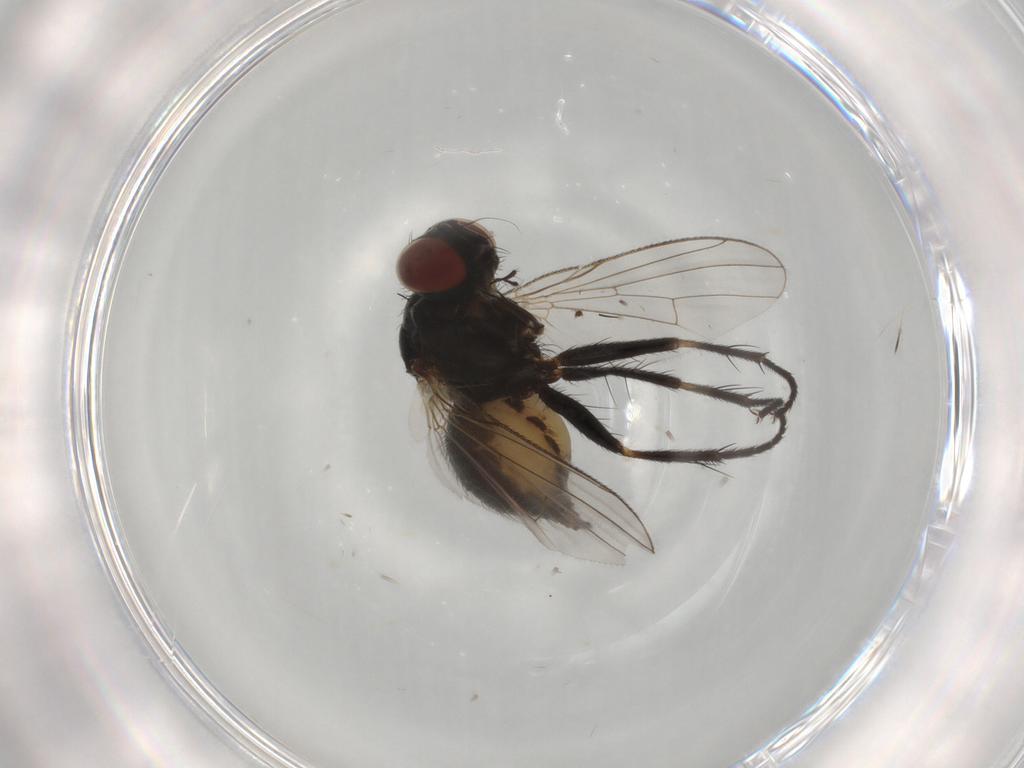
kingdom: Animalia
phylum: Arthropoda
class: Insecta
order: Diptera
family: Muscidae
